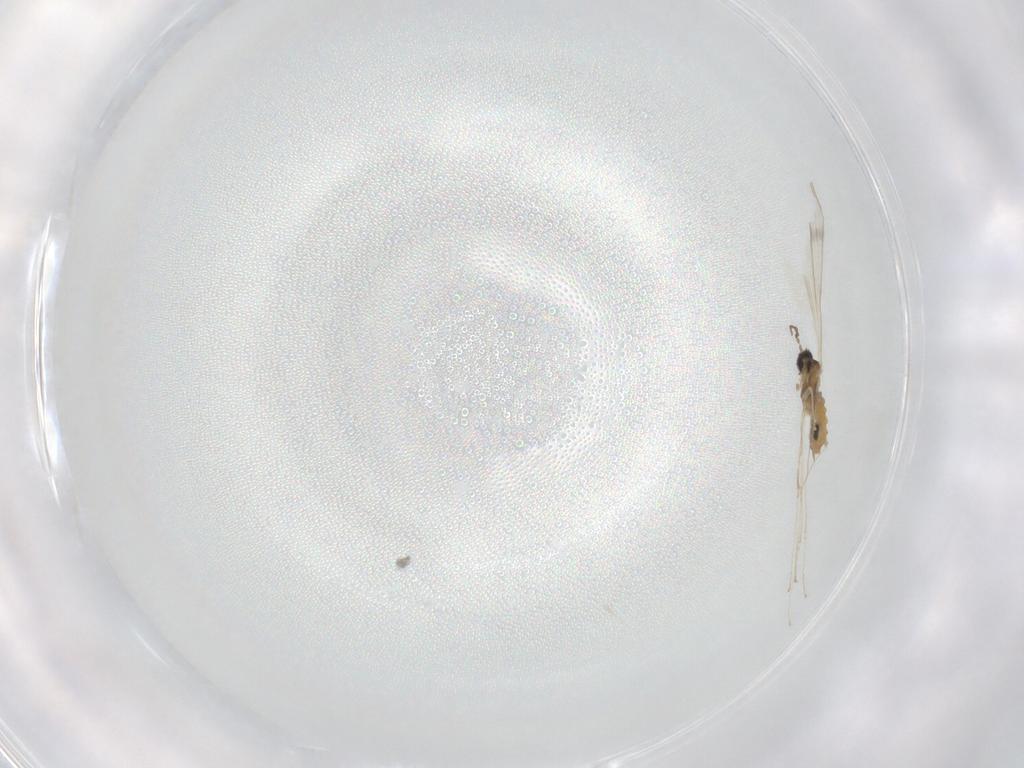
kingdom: Animalia
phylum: Arthropoda
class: Insecta
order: Diptera
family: Cecidomyiidae
